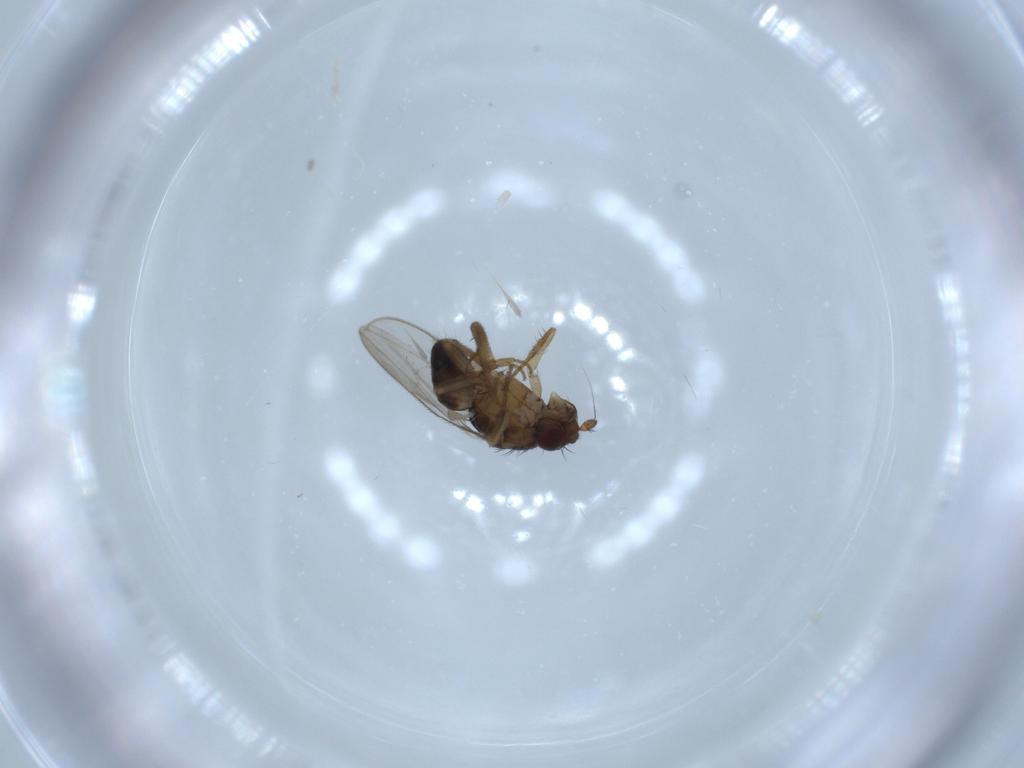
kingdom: Animalia
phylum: Arthropoda
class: Insecta
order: Diptera
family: Sphaeroceridae
